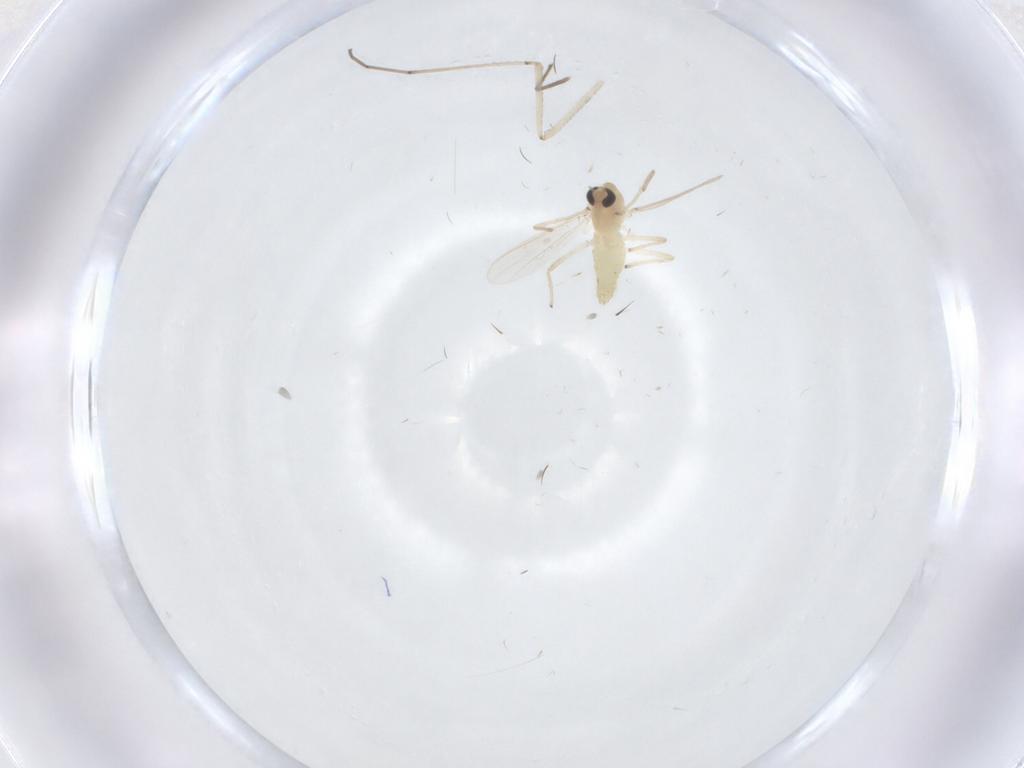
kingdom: Animalia
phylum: Arthropoda
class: Insecta
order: Diptera
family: Cecidomyiidae
